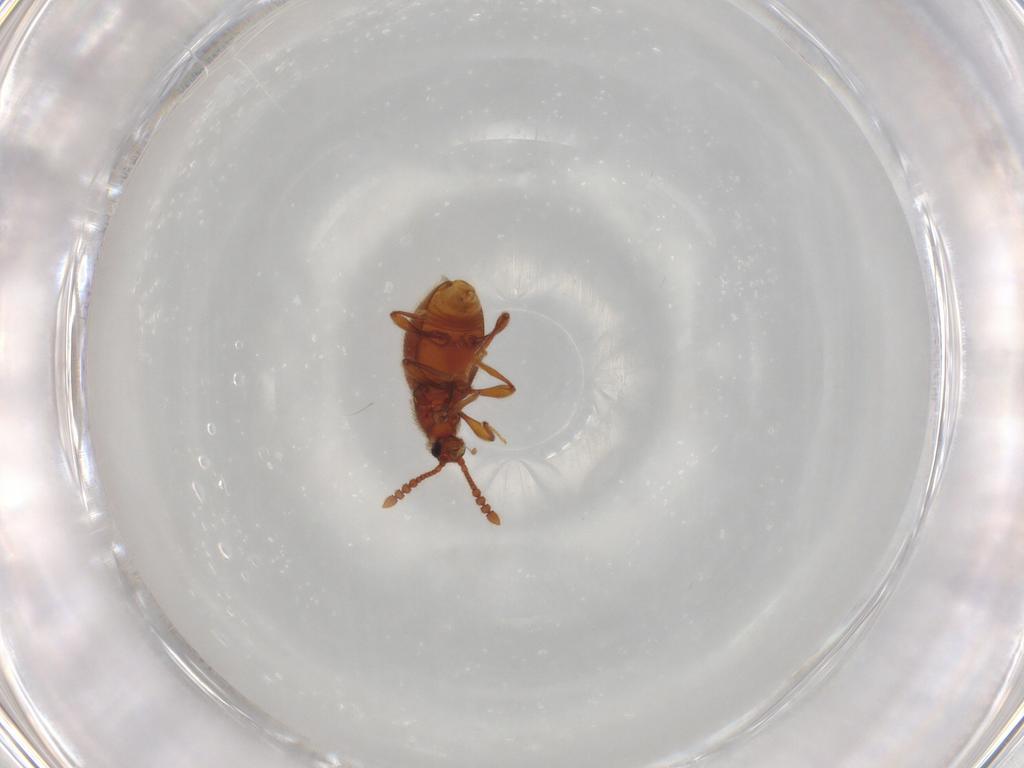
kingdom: Animalia
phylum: Arthropoda
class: Insecta
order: Coleoptera
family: Staphylinidae
